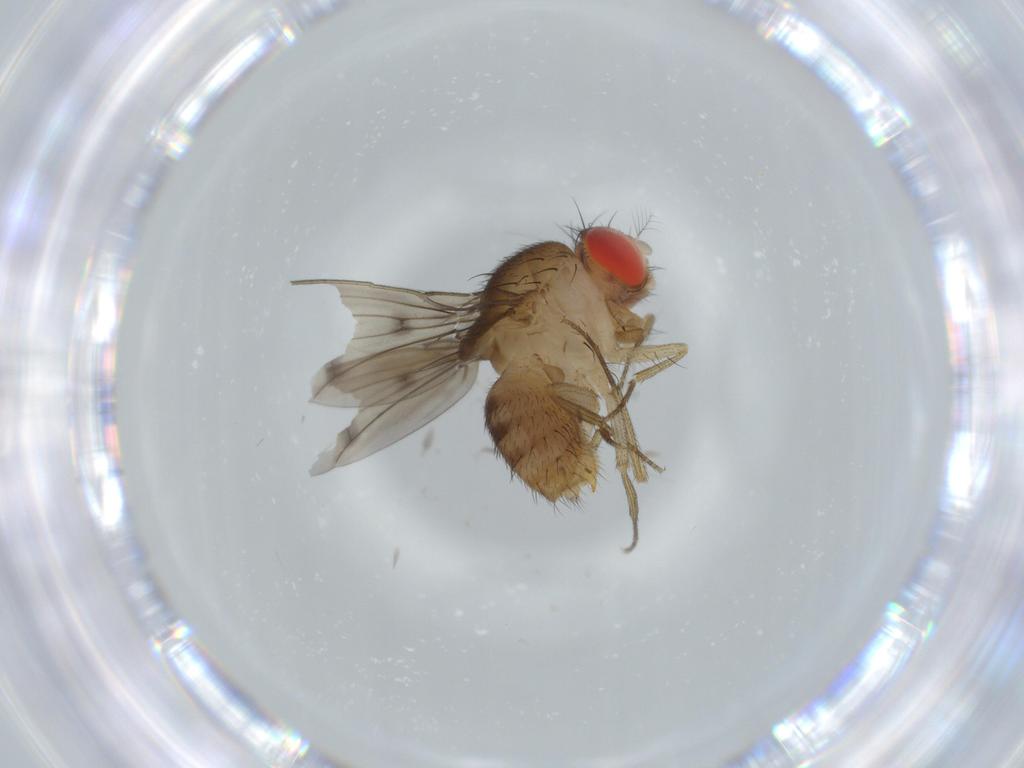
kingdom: Animalia
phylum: Arthropoda
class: Insecta
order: Diptera
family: Drosophilidae
